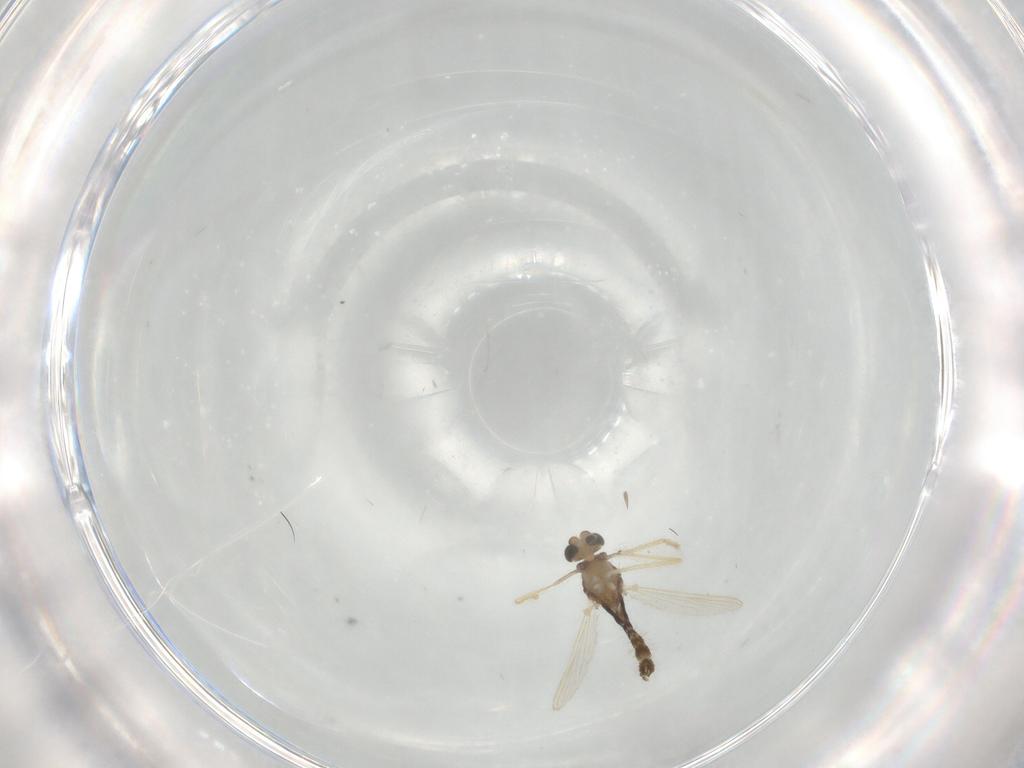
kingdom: Animalia
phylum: Arthropoda
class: Insecta
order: Diptera
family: Chironomidae
